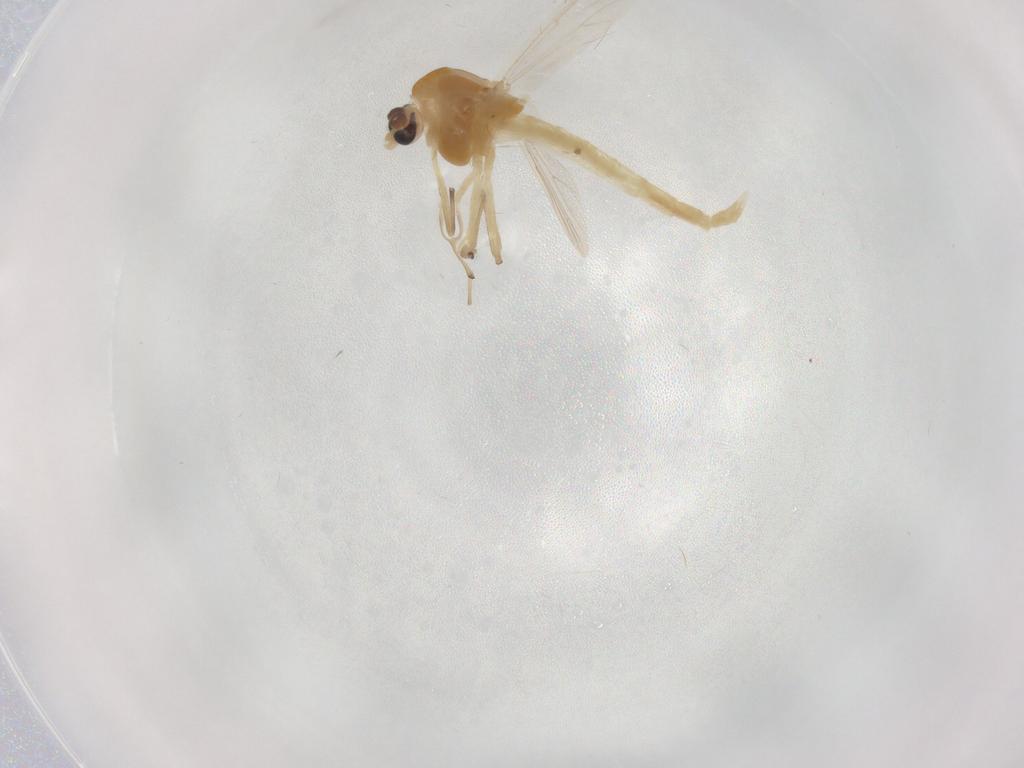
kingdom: Animalia
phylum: Arthropoda
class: Insecta
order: Diptera
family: Chironomidae
